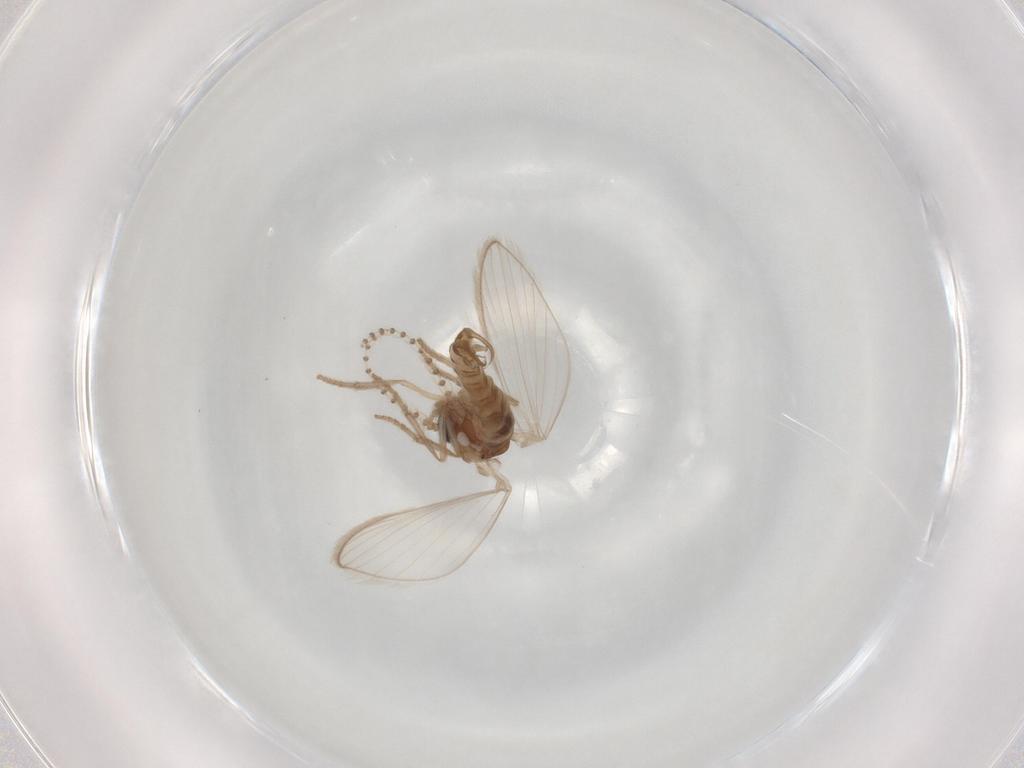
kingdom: Animalia
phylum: Arthropoda
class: Insecta
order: Diptera
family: Psychodidae
